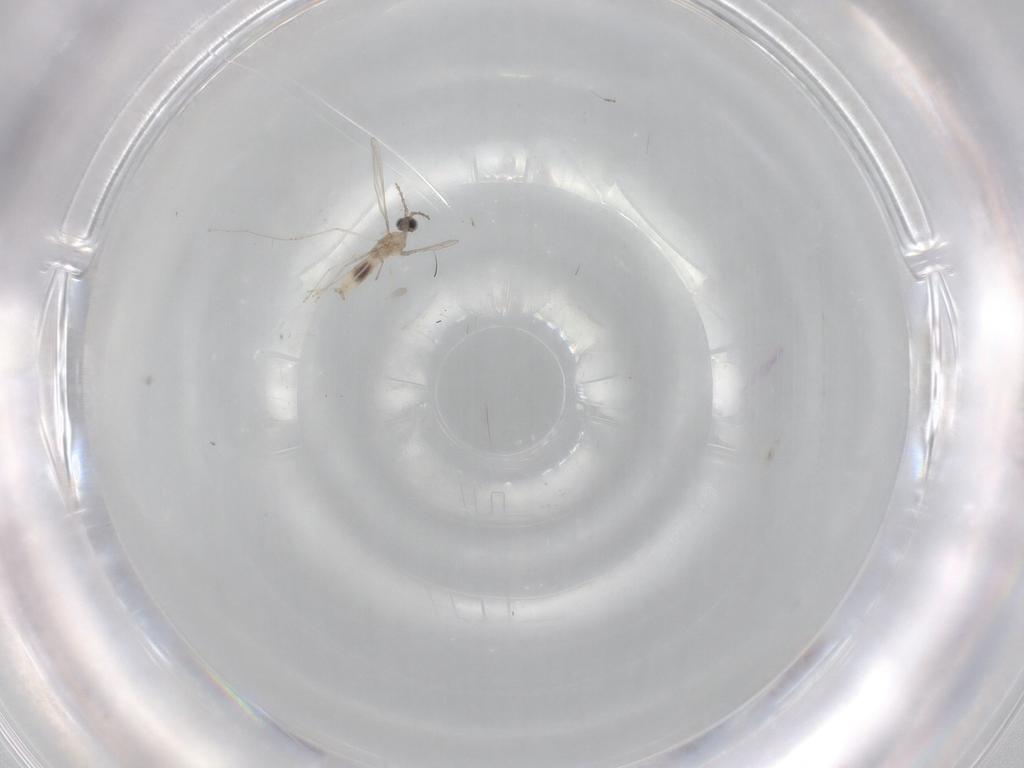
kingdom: Animalia
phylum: Arthropoda
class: Insecta
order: Diptera
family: Cecidomyiidae
